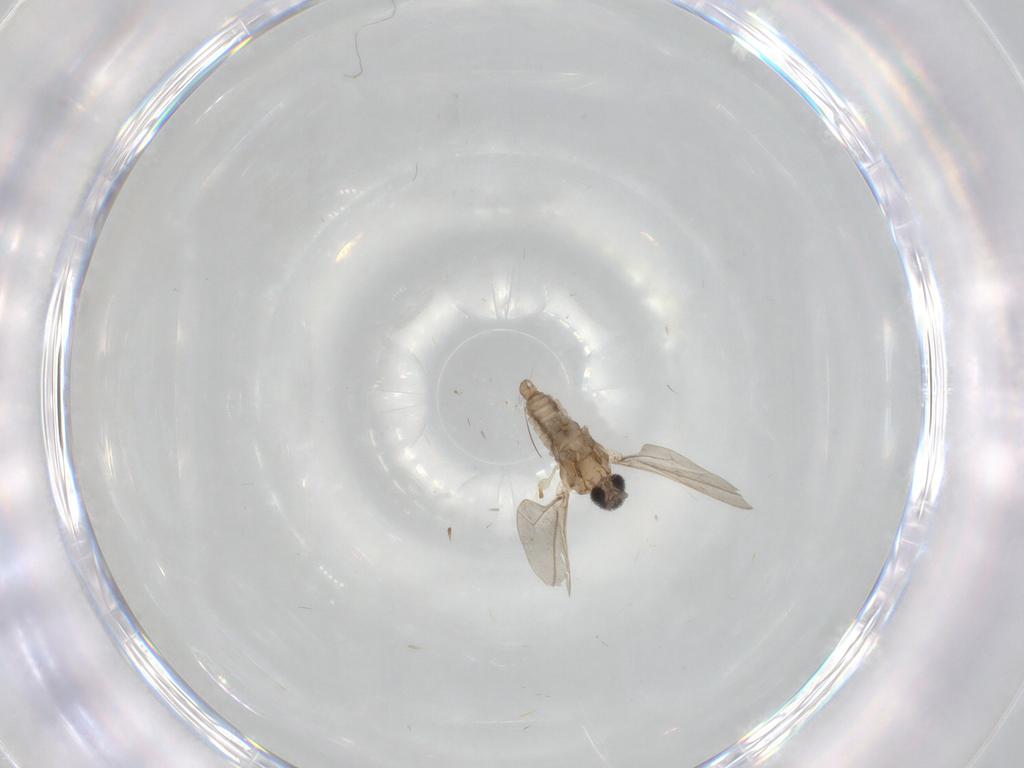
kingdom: Animalia
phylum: Arthropoda
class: Insecta
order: Diptera
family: Cecidomyiidae
